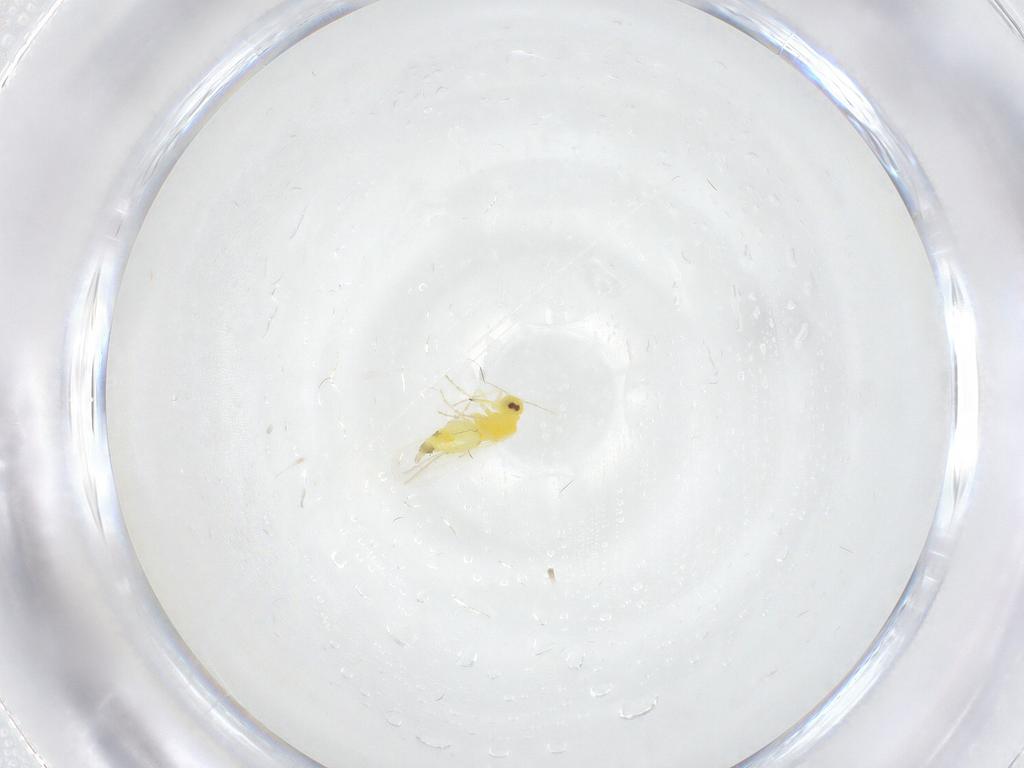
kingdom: Animalia
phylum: Arthropoda
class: Insecta
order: Hemiptera
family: Aleyrodidae
